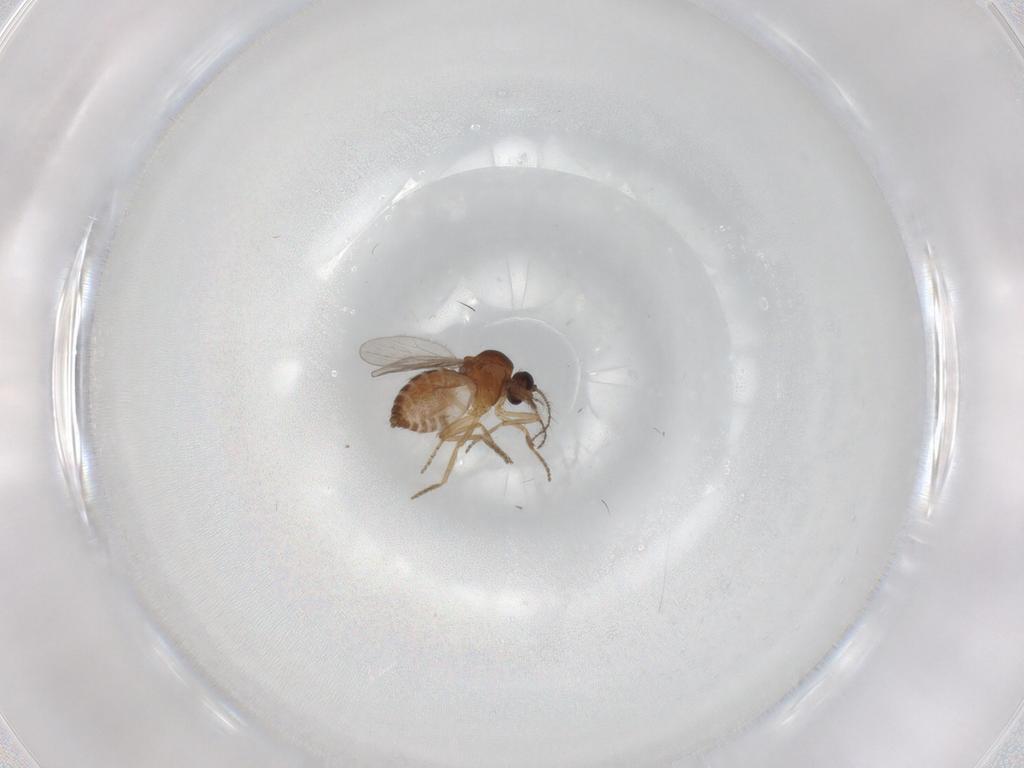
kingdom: Animalia
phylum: Arthropoda
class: Insecta
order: Diptera
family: Ceratopogonidae
